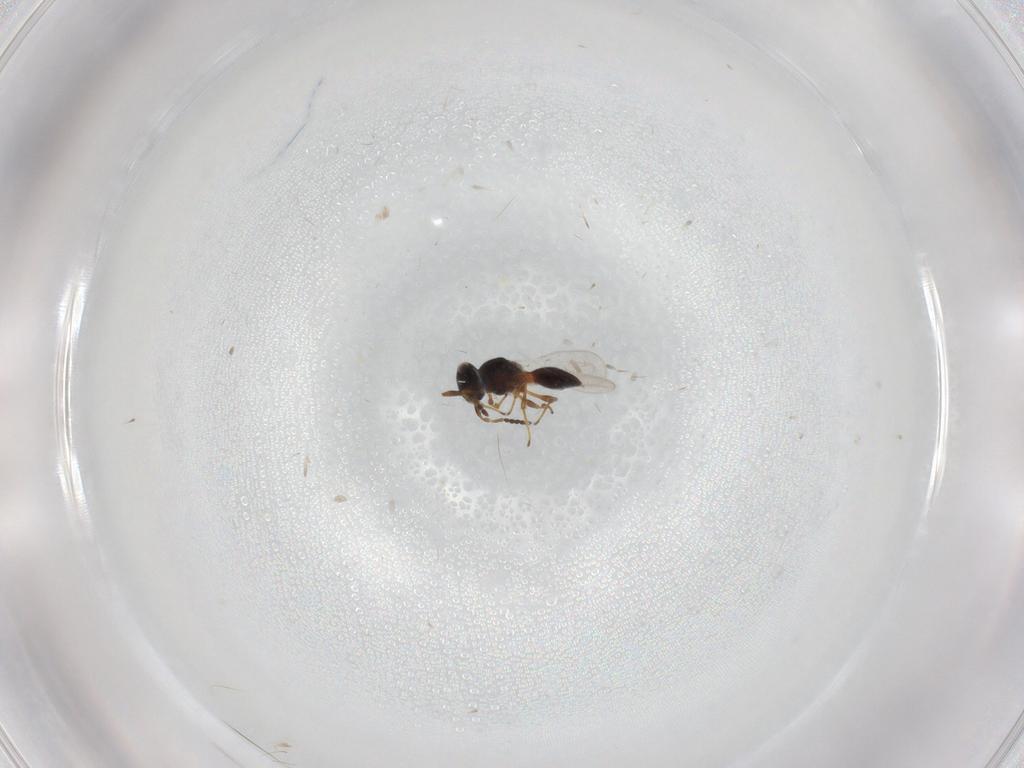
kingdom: Animalia
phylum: Arthropoda
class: Insecta
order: Hymenoptera
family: Platygastridae
